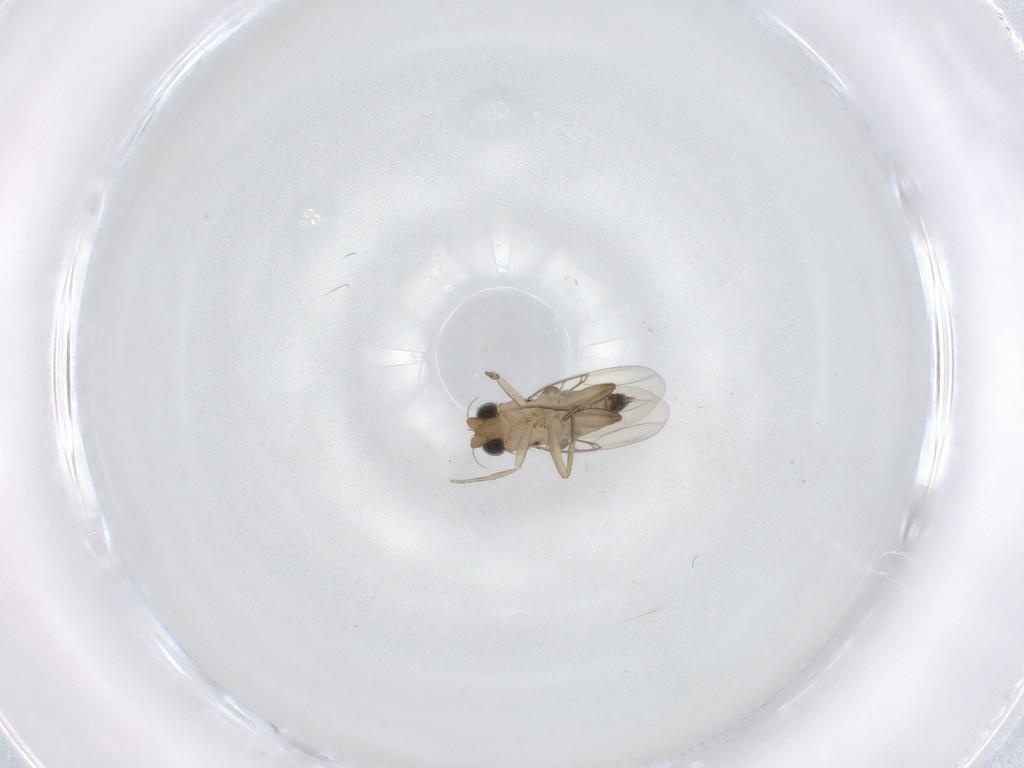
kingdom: Animalia
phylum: Arthropoda
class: Insecta
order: Diptera
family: Phoridae
